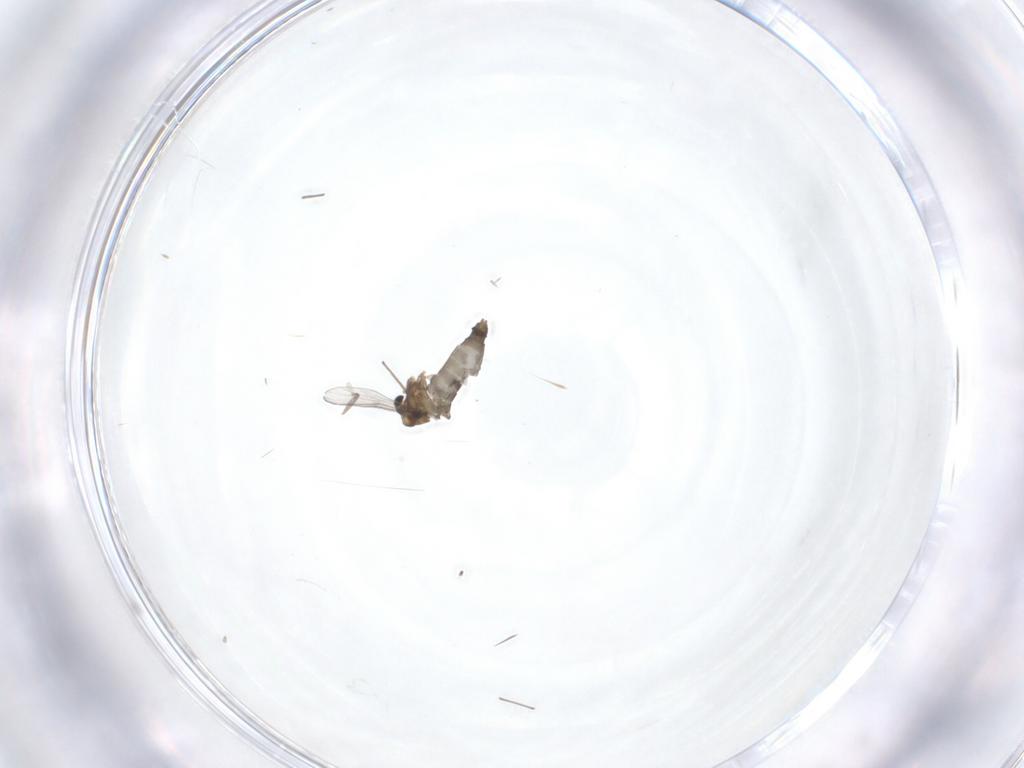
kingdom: Animalia
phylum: Arthropoda
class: Insecta
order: Diptera
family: Chironomidae
